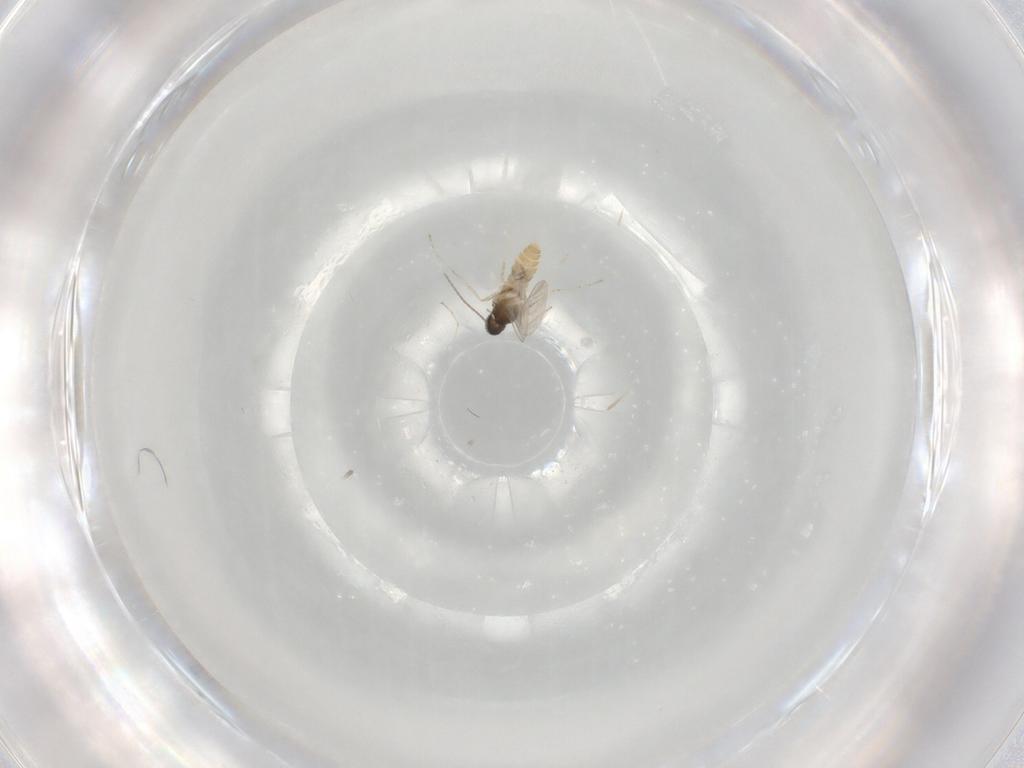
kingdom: Animalia
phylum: Arthropoda
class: Insecta
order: Diptera
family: Cecidomyiidae
